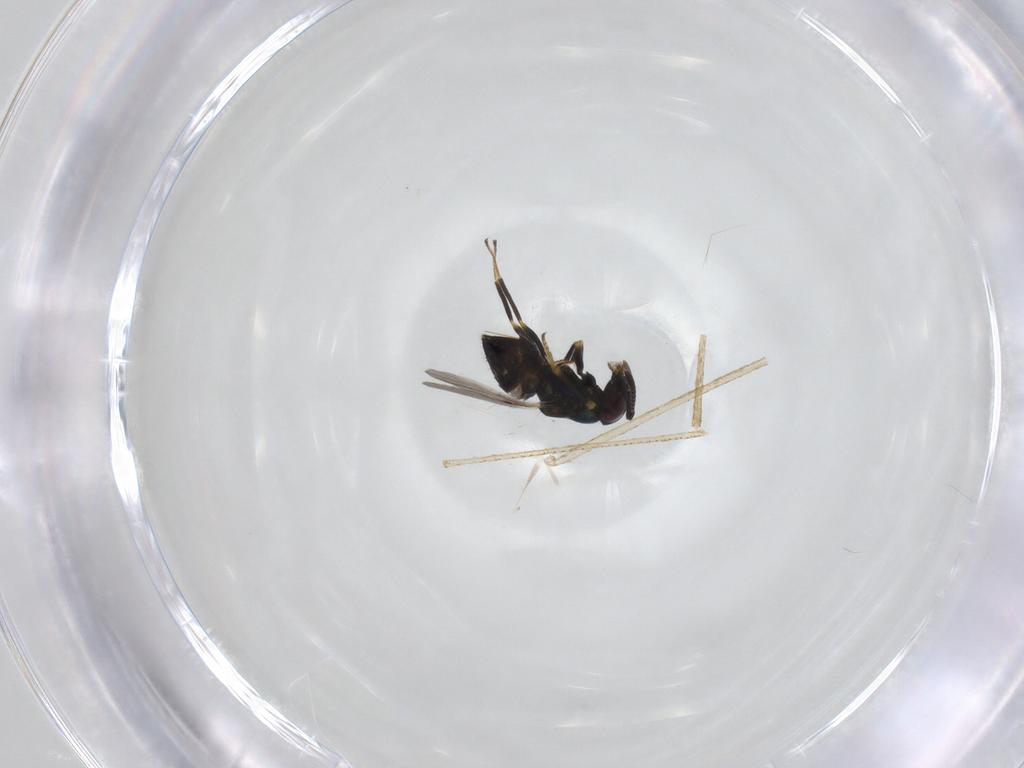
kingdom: Animalia
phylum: Arthropoda
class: Insecta
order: Hymenoptera
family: Encyrtidae
